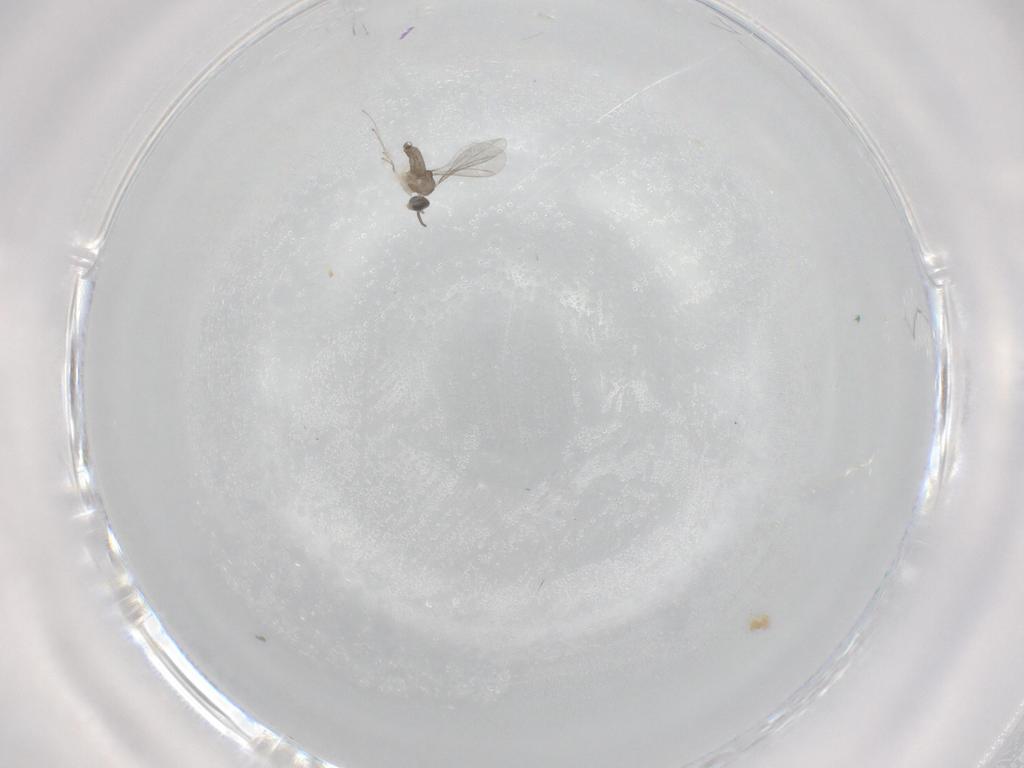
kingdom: Animalia
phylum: Arthropoda
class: Insecta
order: Diptera
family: Cecidomyiidae
